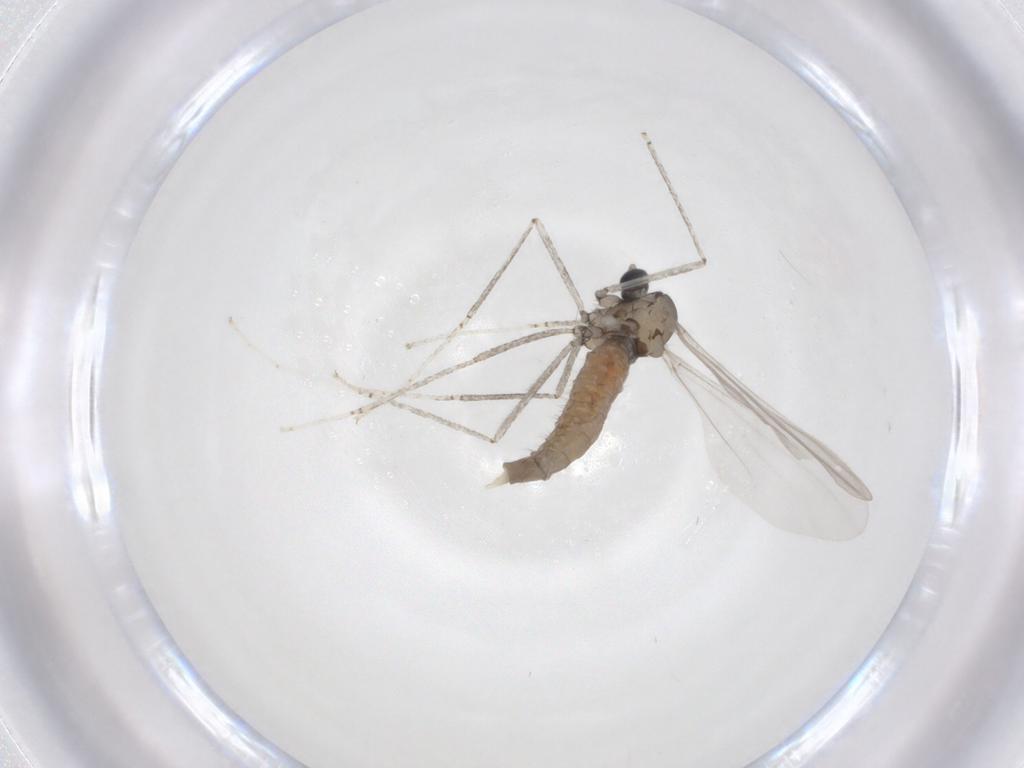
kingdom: Animalia
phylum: Arthropoda
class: Insecta
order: Diptera
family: Cecidomyiidae
